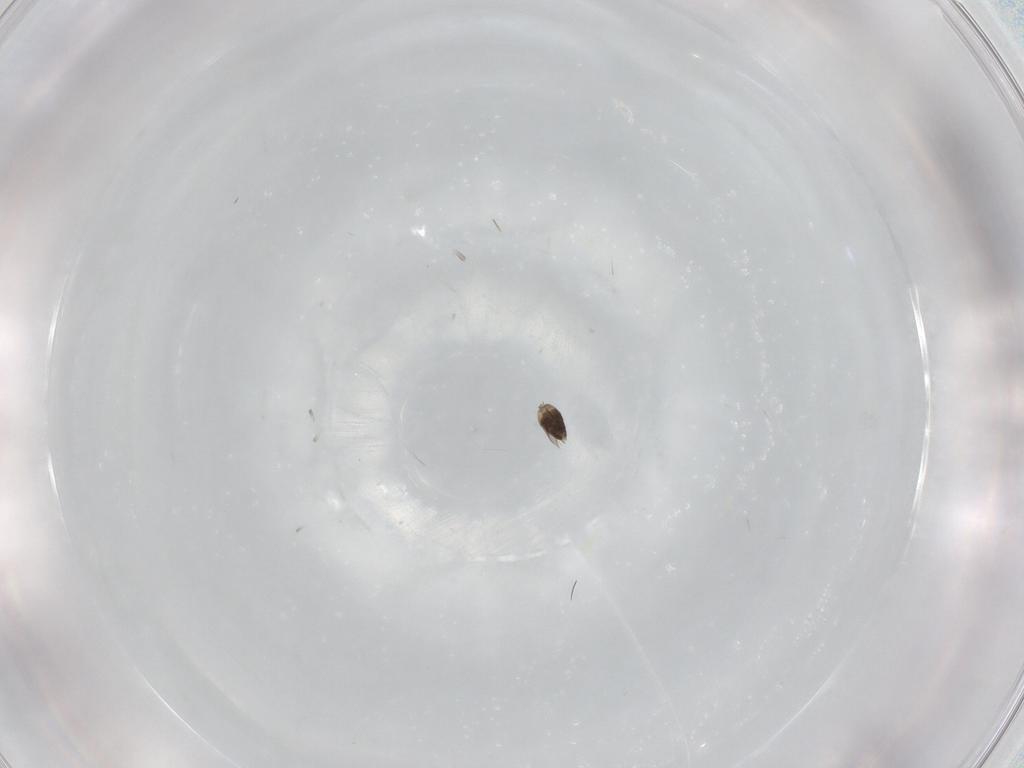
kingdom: Animalia
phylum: Arthropoda
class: Insecta
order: Hymenoptera
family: Mymaridae
